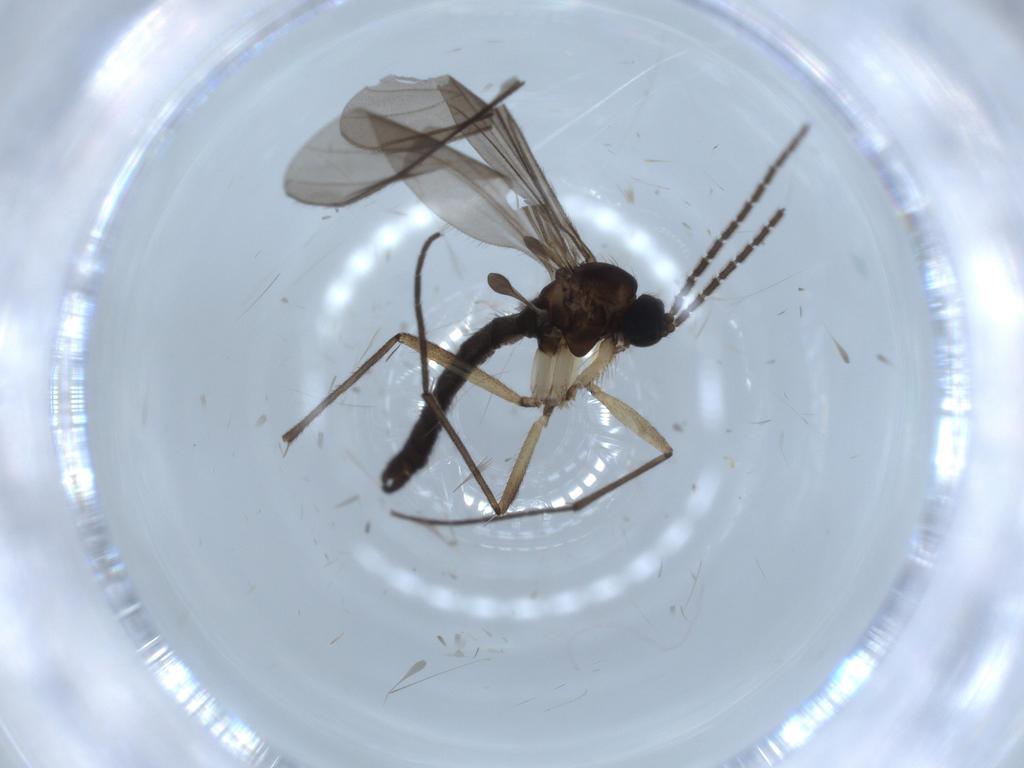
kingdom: Animalia
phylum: Arthropoda
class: Insecta
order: Diptera
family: Sciaridae
